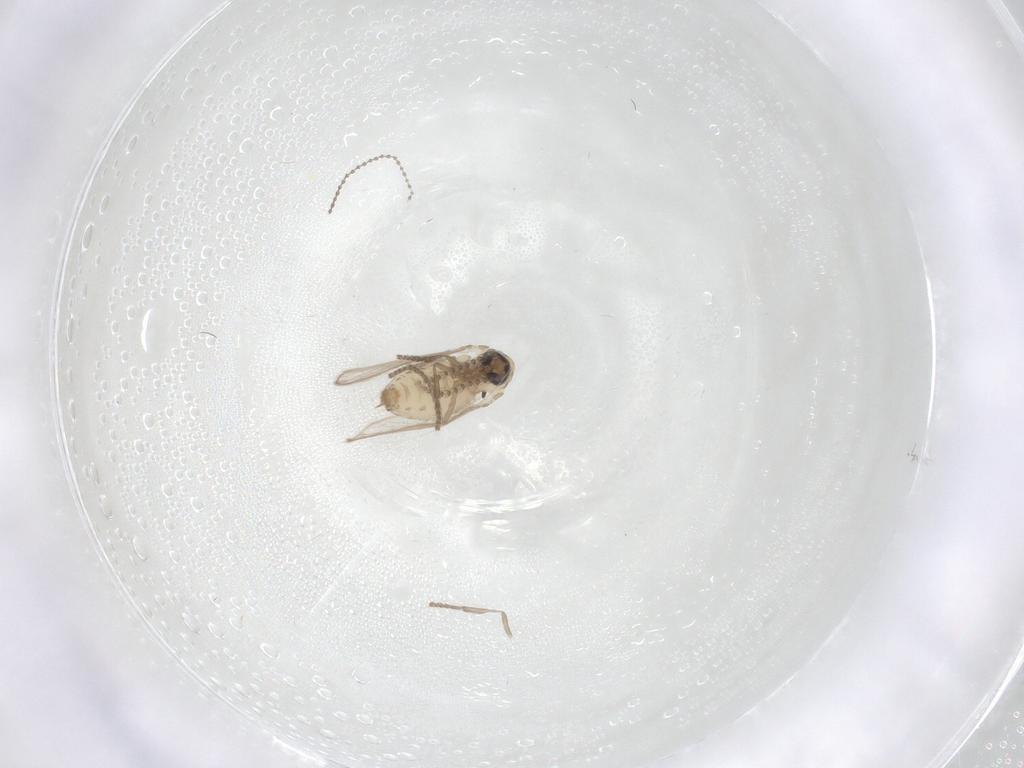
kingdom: Animalia
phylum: Arthropoda
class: Insecta
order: Diptera
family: Psychodidae
